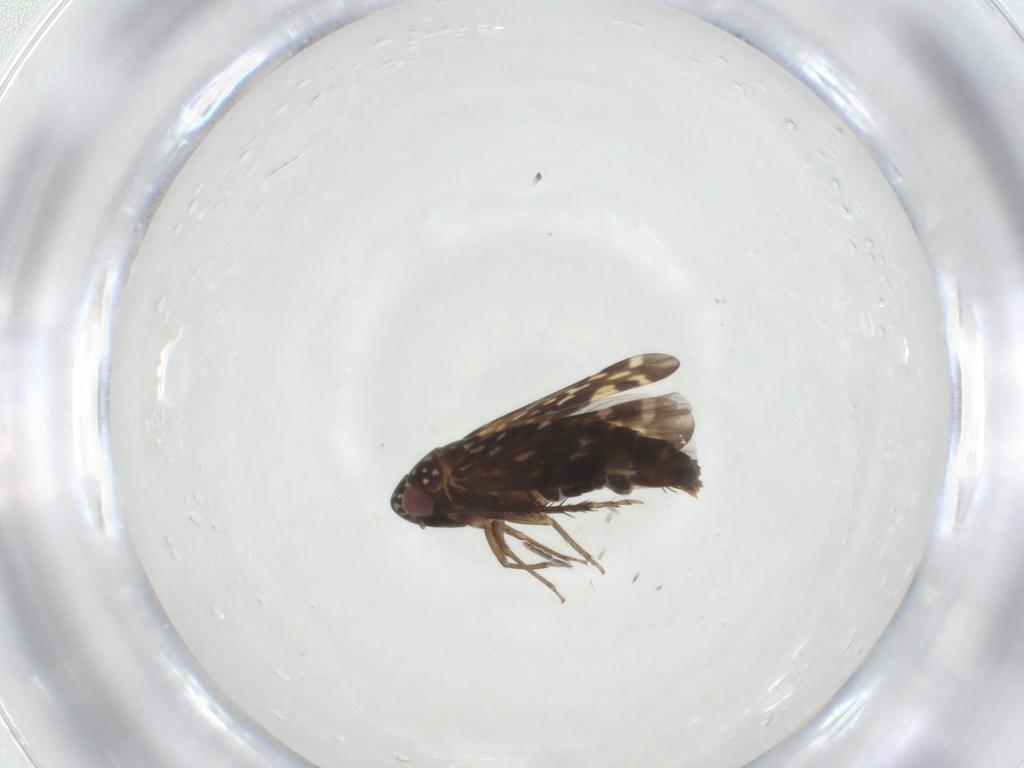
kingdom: Animalia
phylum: Arthropoda
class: Insecta
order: Hemiptera
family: Cicadellidae
